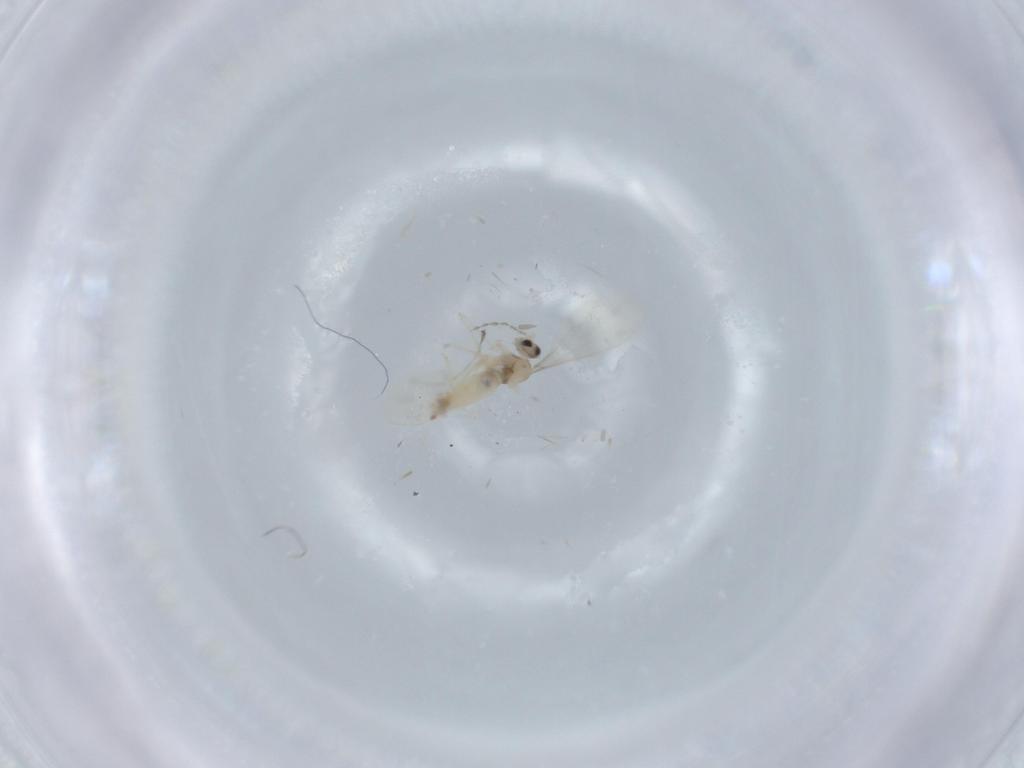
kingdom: Animalia
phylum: Arthropoda
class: Insecta
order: Diptera
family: Cecidomyiidae
